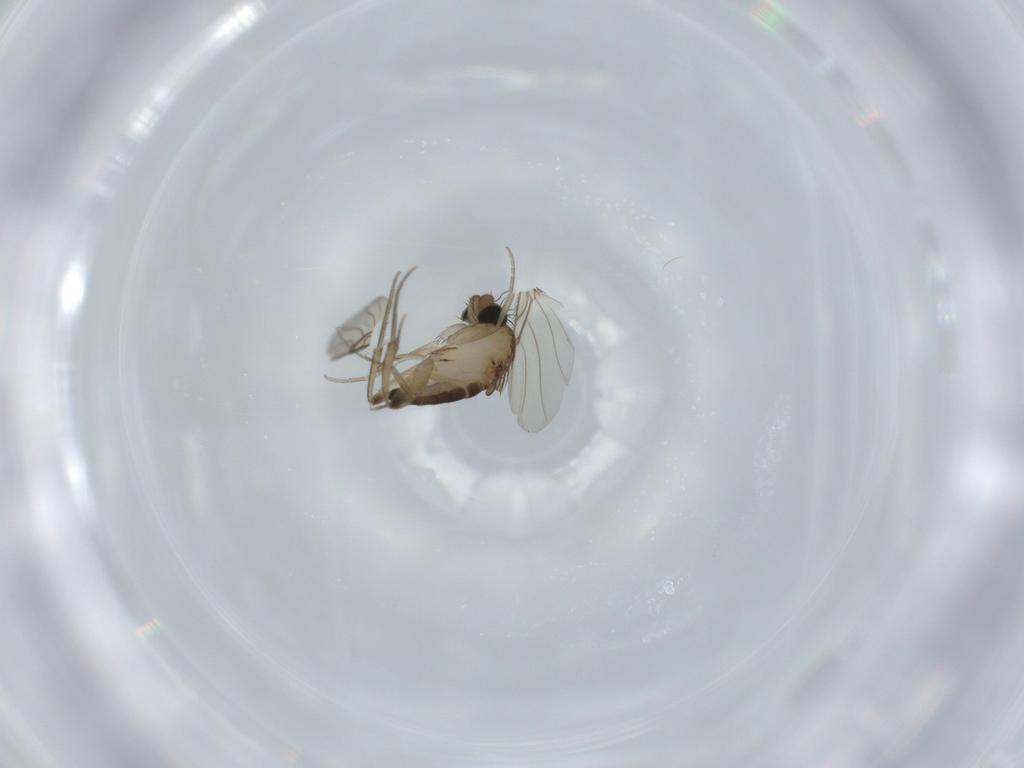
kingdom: Animalia
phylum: Arthropoda
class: Insecta
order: Diptera
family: Phoridae
